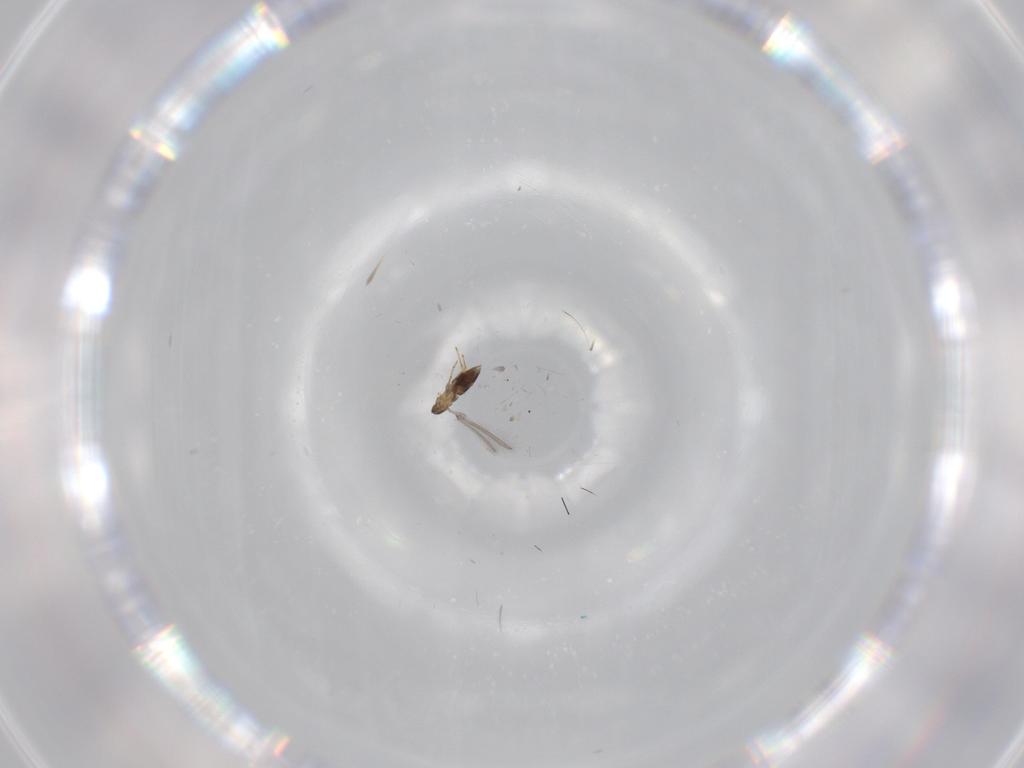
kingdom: Animalia
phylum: Arthropoda
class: Insecta
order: Hymenoptera
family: Mymaridae
